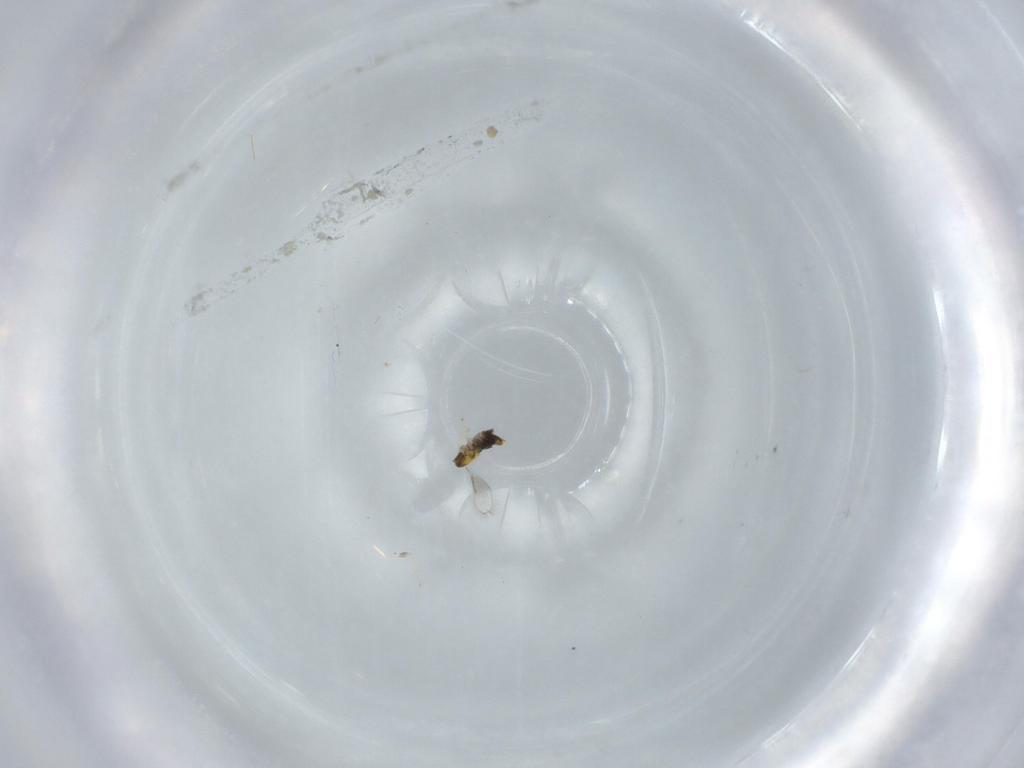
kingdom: Animalia
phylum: Arthropoda
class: Insecta
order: Hymenoptera
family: Aphelinidae
